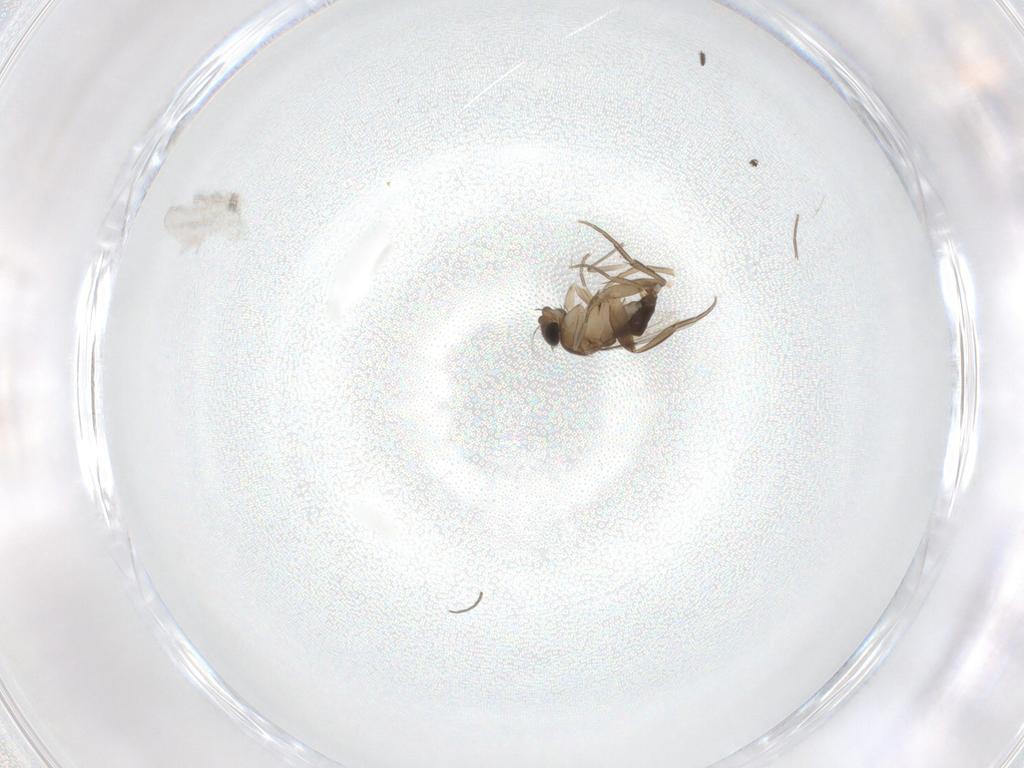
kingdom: Animalia
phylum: Arthropoda
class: Insecta
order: Diptera
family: Phoridae
